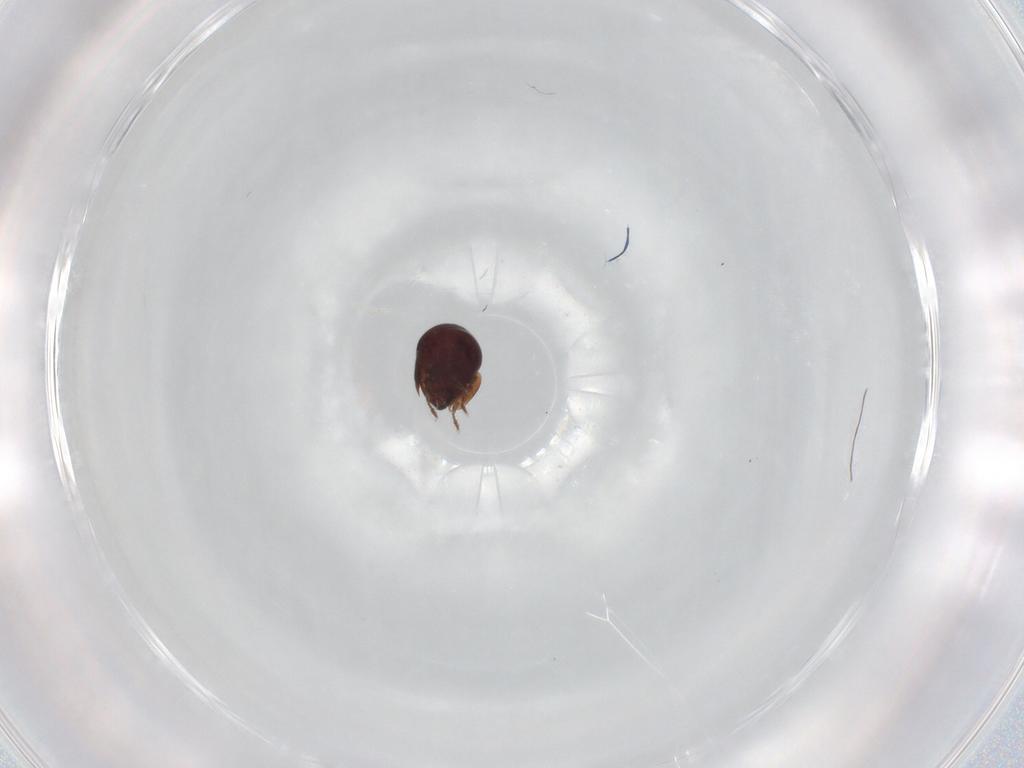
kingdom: Animalia
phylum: Arthropoda
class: Arachnida
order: Sarcoptiformes
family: Galumnidae
